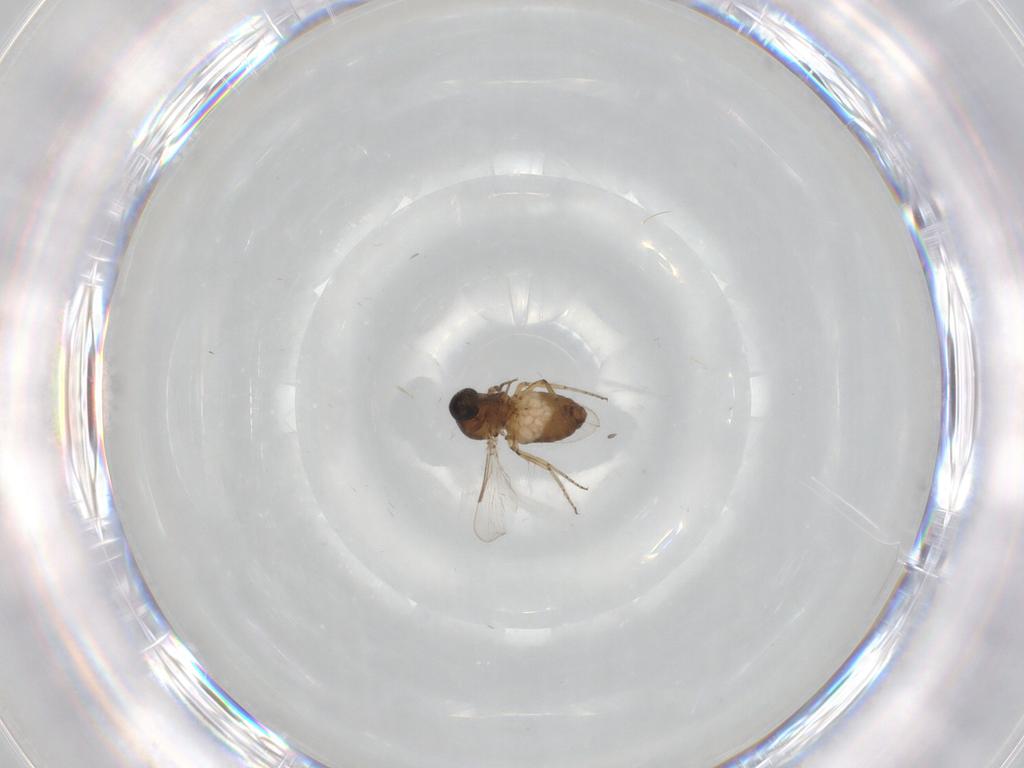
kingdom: Animalia
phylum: Arthropoda
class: Insecta
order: Diptera
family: Ceratopogonidae
